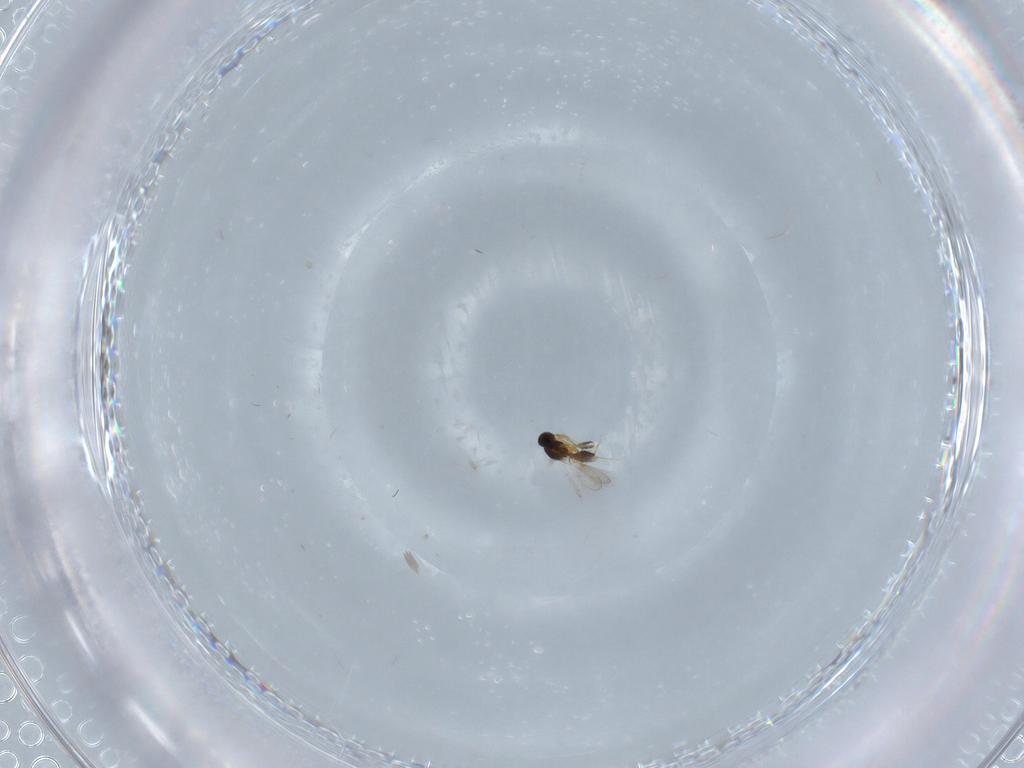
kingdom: Animalia
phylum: Arthropoda
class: Insecta
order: Hymenoptera
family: Platygastridae
